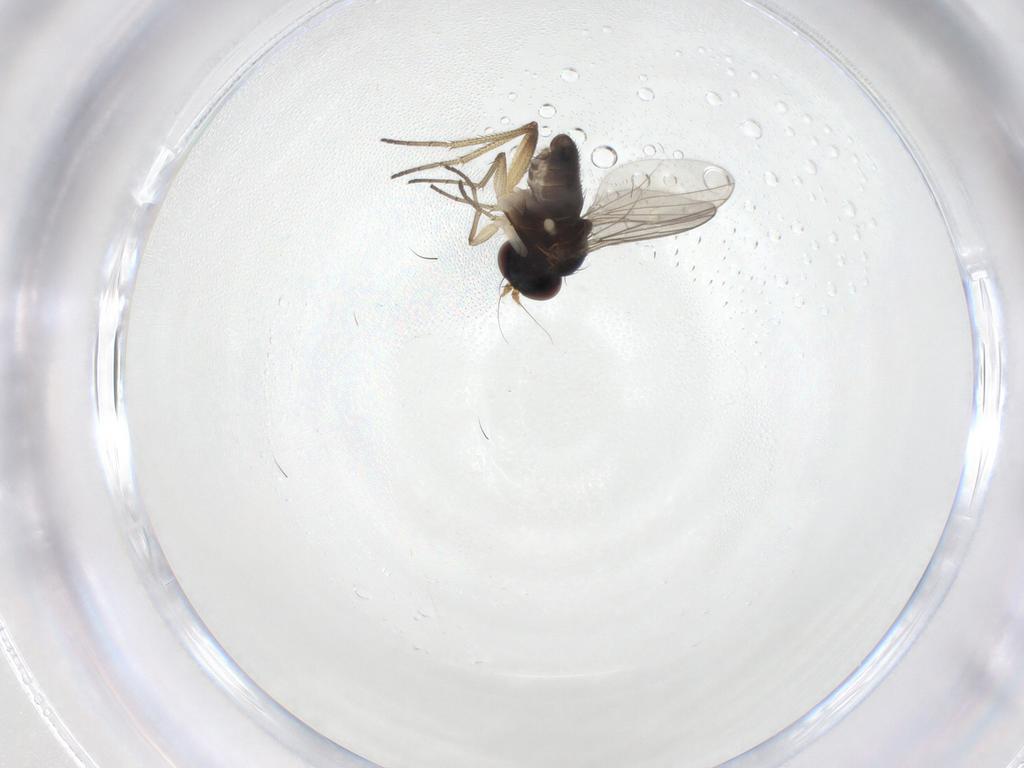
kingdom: Animalia
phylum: Arthropoda
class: Insecta
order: Diptera
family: Dolichopodidae
